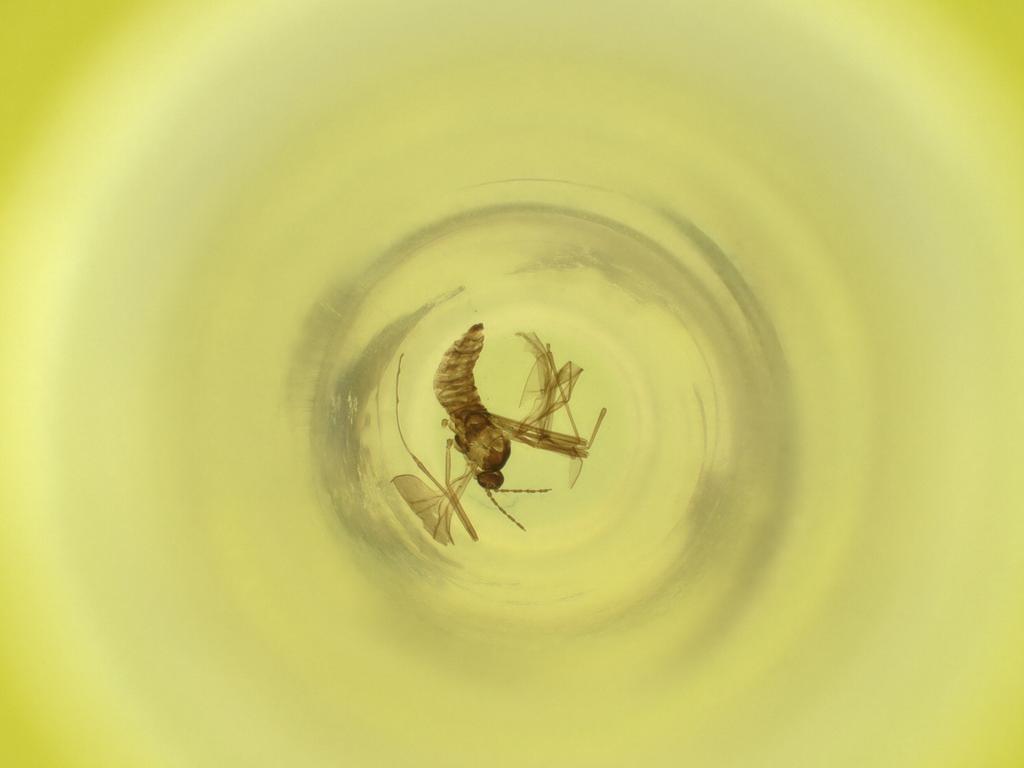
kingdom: Animalia
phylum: Arthropoda
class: Insecta
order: Diptera
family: Cecidomyiidae
